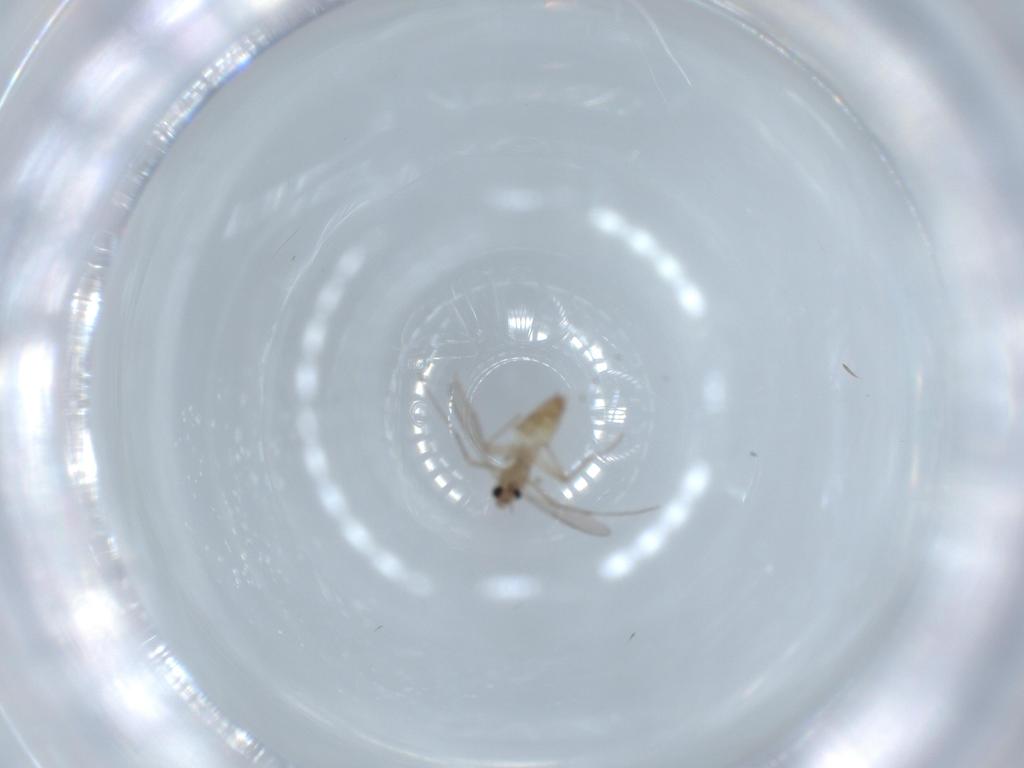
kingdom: Animalia
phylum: Arthropoda
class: Insecta
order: Diptera
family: Chironomidae
